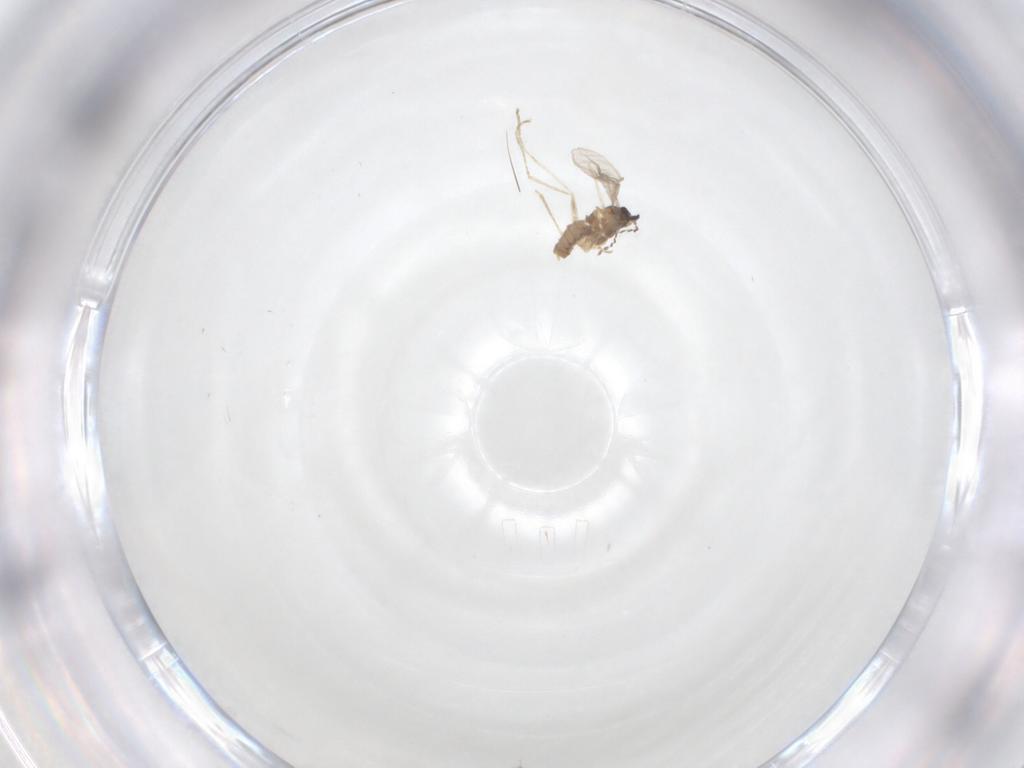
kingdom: Animalia
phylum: Arthropoda
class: Insecta
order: Diptera
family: Cecidomyiidae
